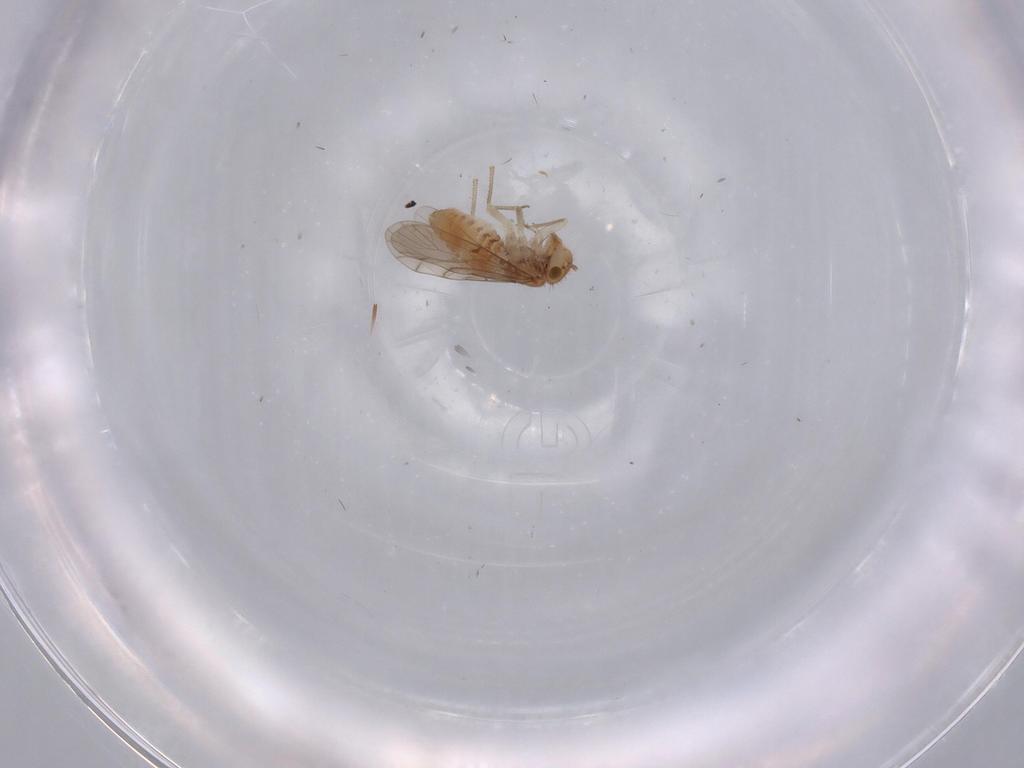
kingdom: Animalia
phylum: Arthropoda
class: Insecta
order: Psocodea
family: Ectopsocidae
